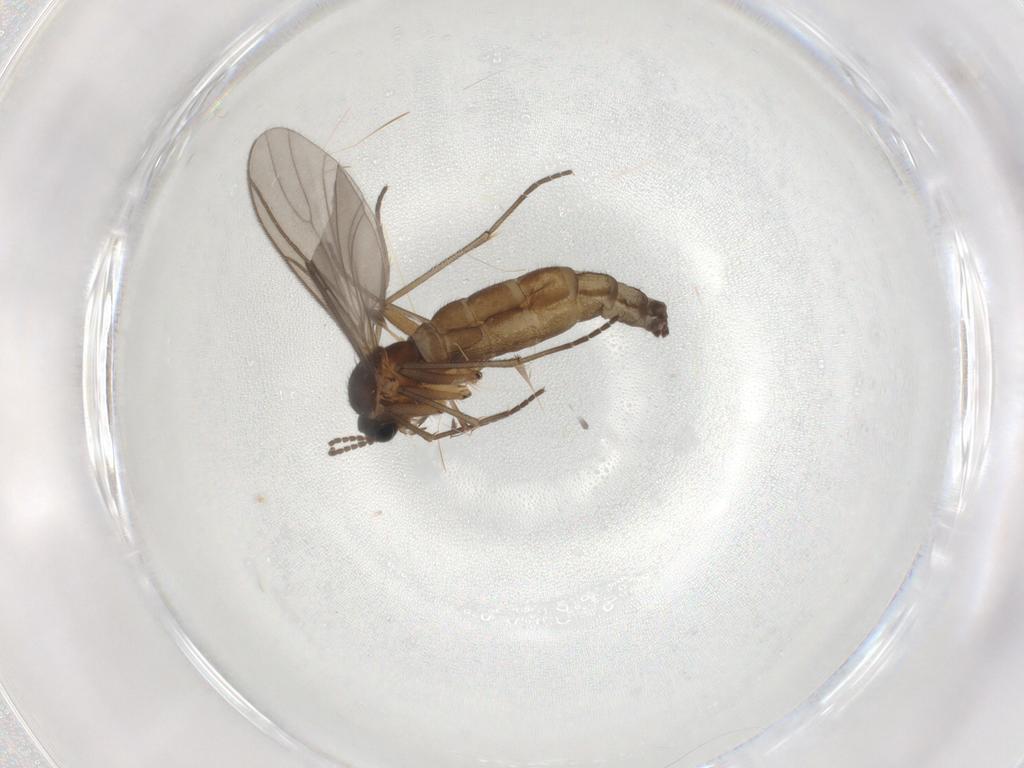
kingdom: Animalia
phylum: Arthropoda
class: Insecta
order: Diptera
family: Sciaridae
